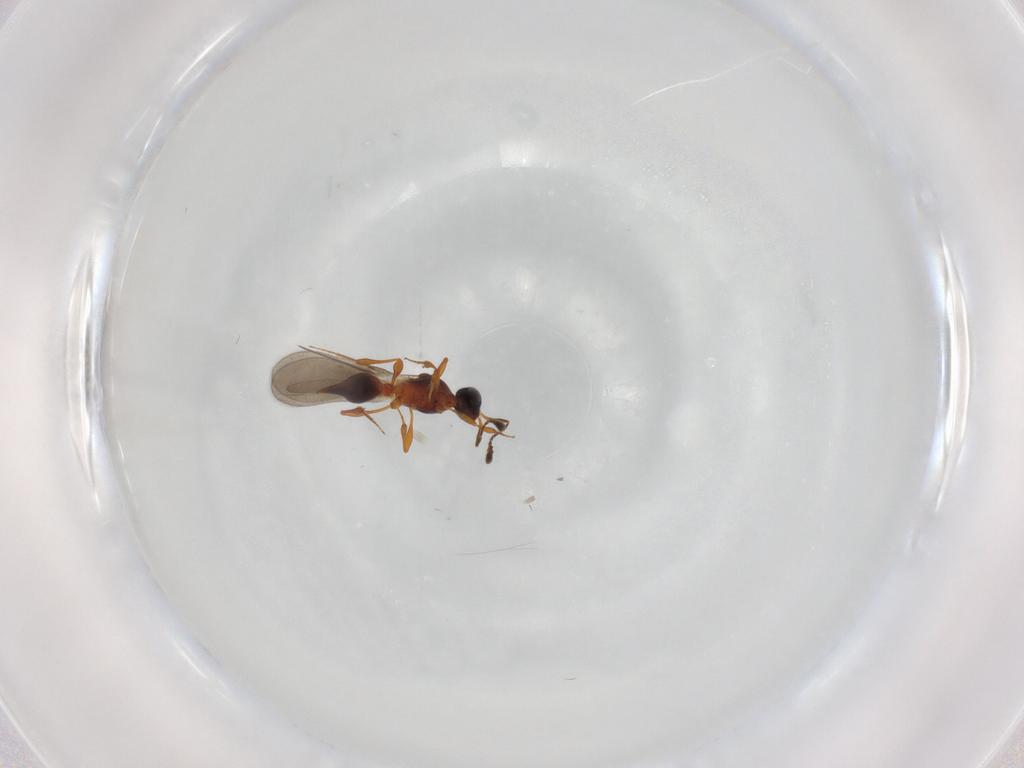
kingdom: Animalia
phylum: Arthropoda
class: Insecta
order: Hymenoptera
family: Platygastridae
